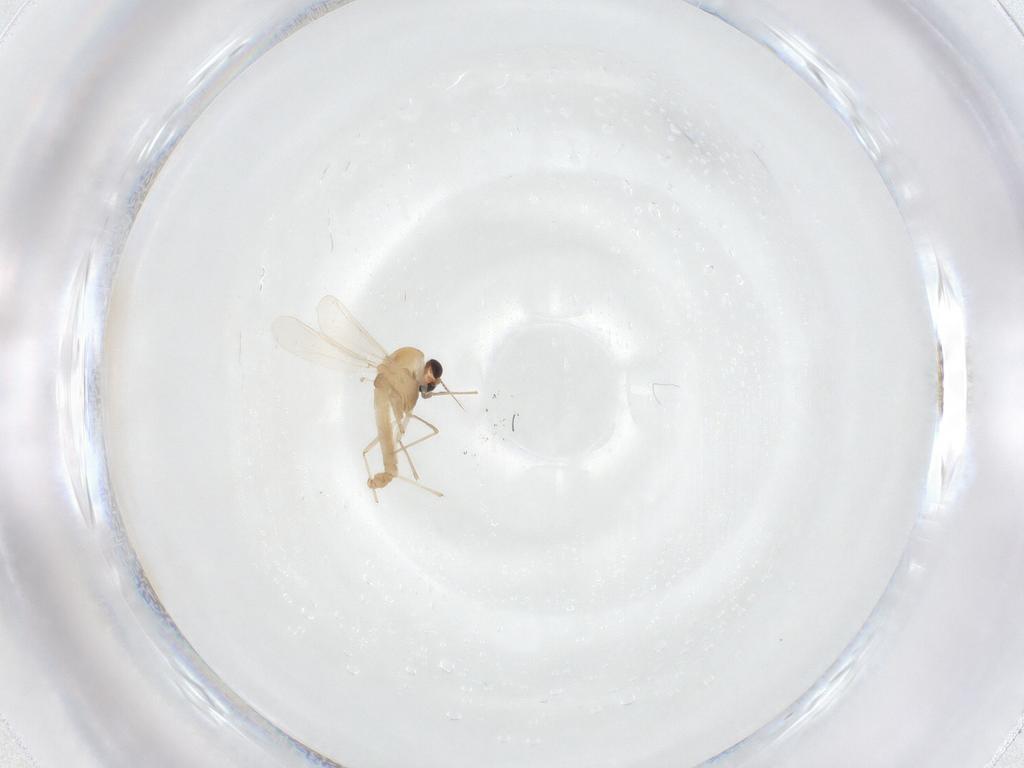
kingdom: Animalia
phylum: Arthropoda
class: Insecta
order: Diptera
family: Chironomidae
